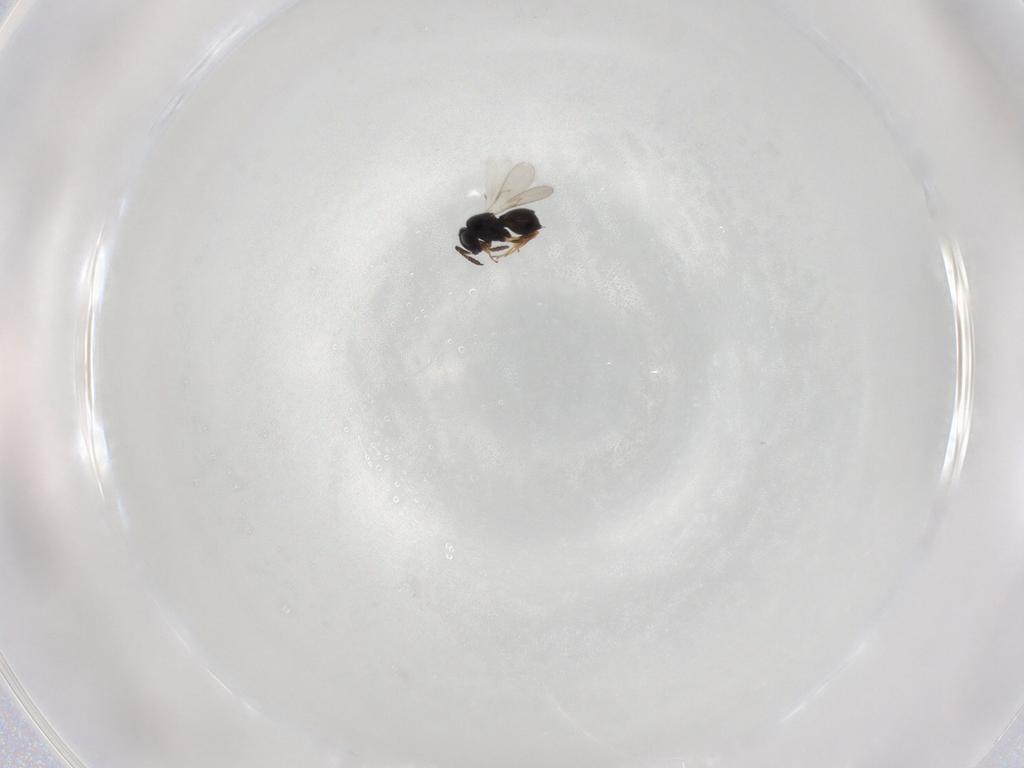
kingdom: Animalia
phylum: Arthropoda
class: Insecta
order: Hymenoptera
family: Scelionidae
